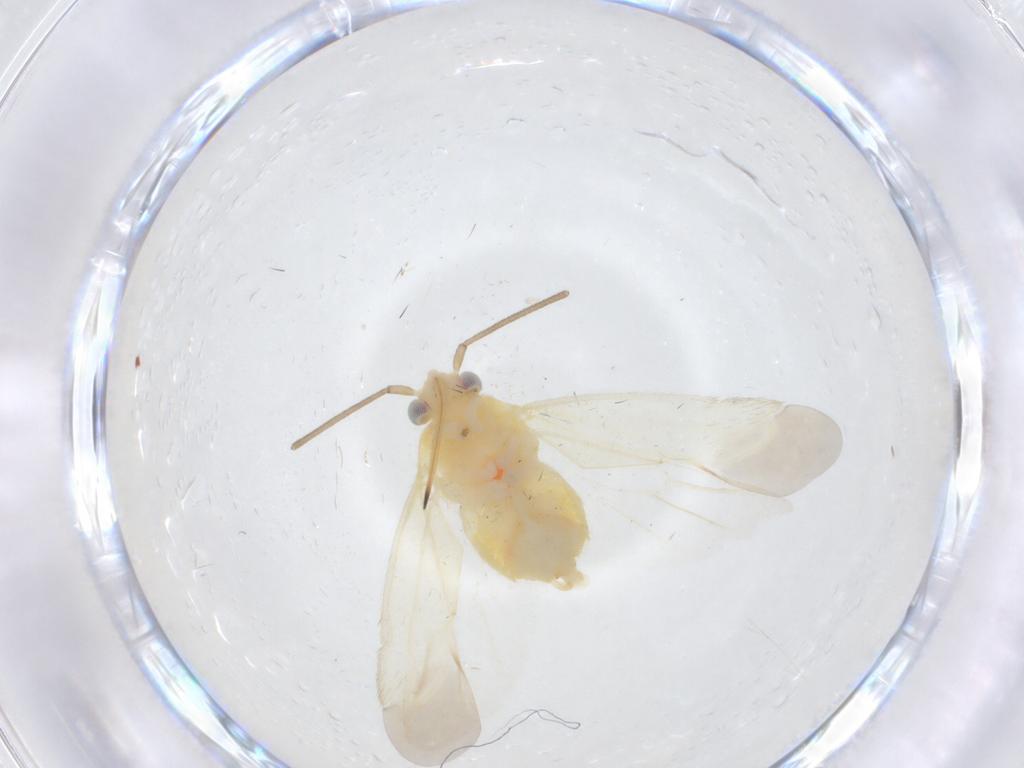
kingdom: Animalia
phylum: Arthropoda
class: Insecta
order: Hemiptera
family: Miridae
